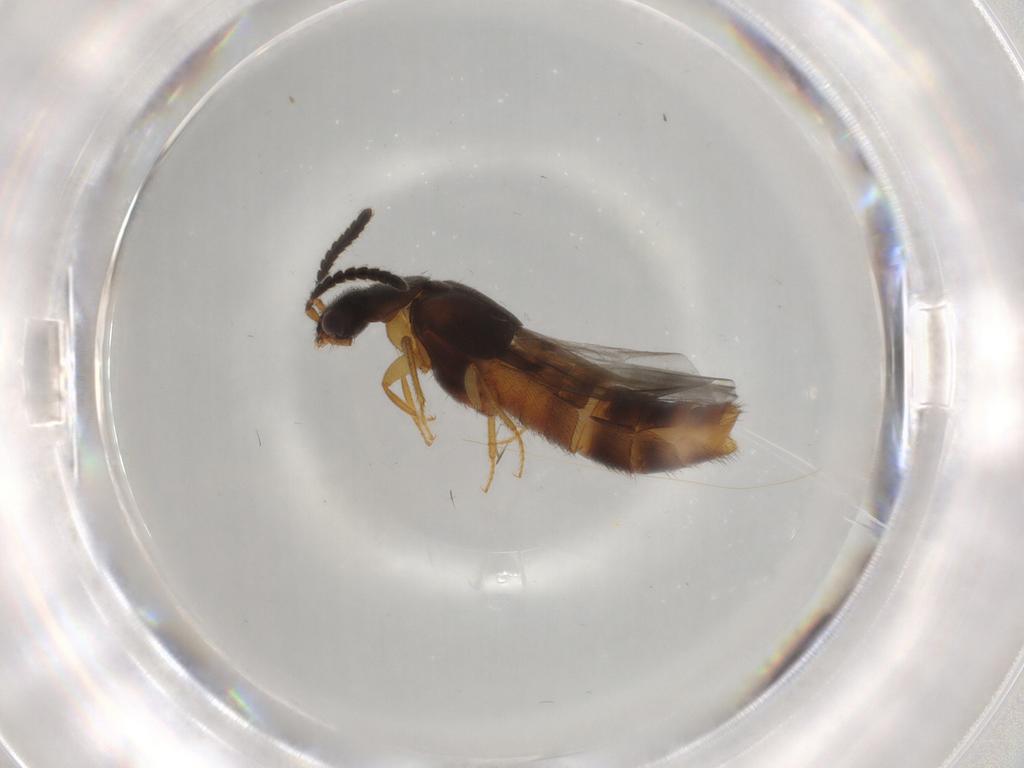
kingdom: Animalia
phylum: Arthropoda
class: Insecta
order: Coleoptera
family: Staphylinidae
